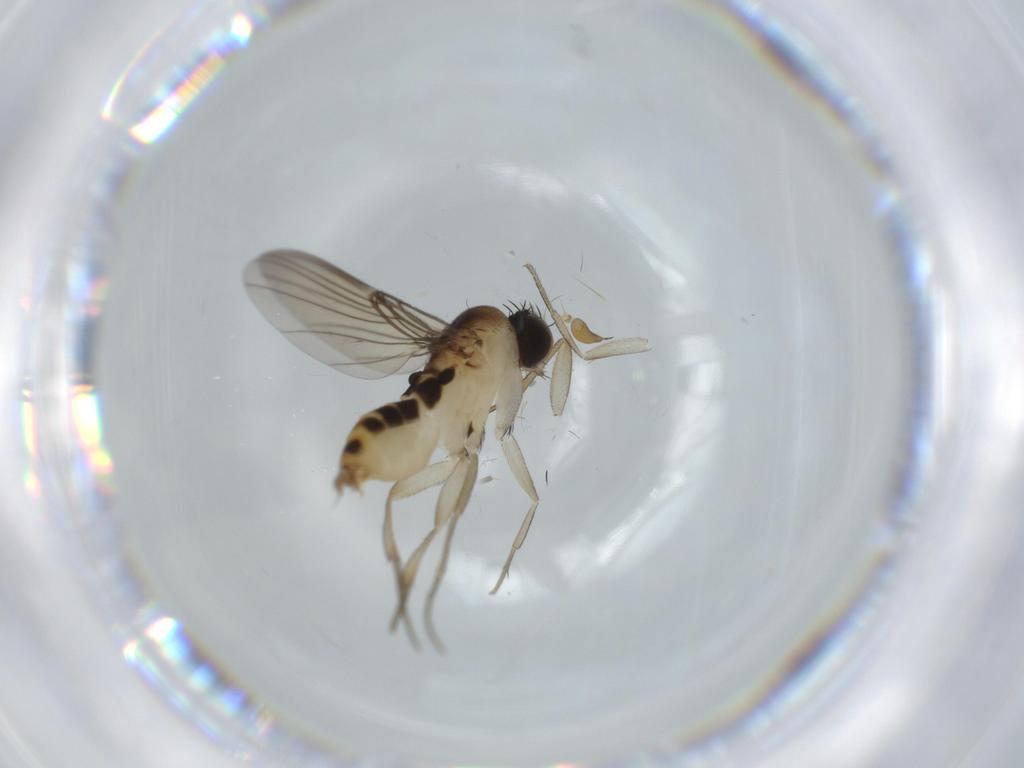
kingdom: Animalia
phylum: Arthropoda
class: Insecta
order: Diptera
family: Phoridae
